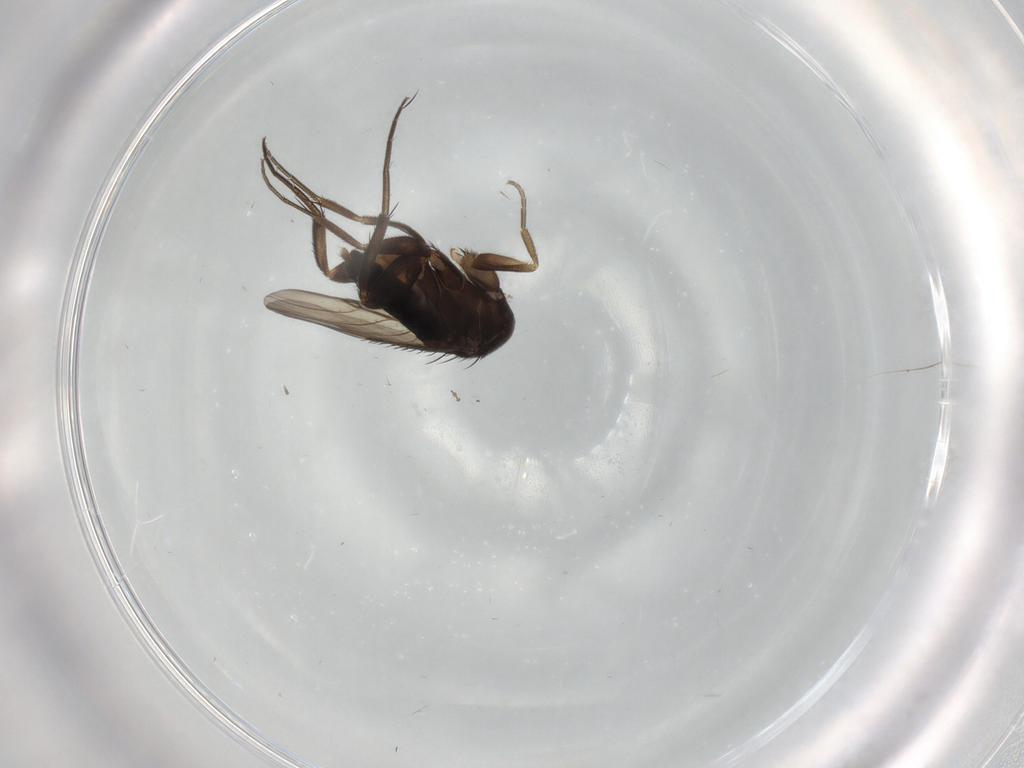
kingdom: Animalia
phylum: Arthropoda
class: Insecta
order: Diptera
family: Phoridae
